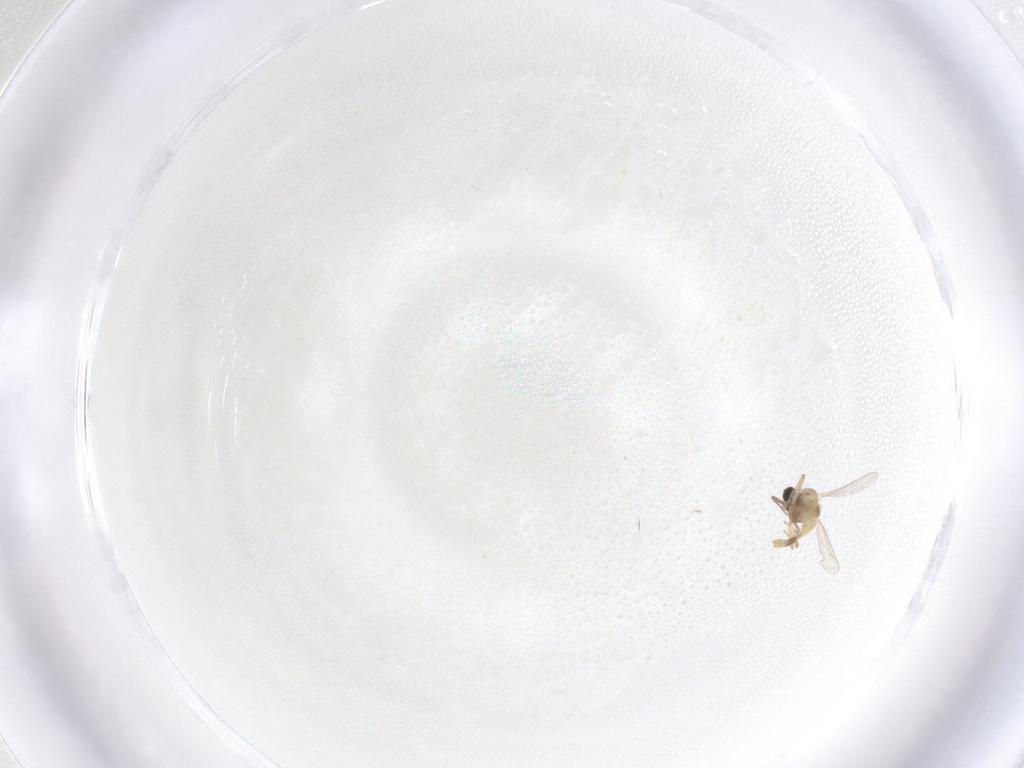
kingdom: Animalia
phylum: Arthropoda
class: Insecta
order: Diptera
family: Chironomidae
